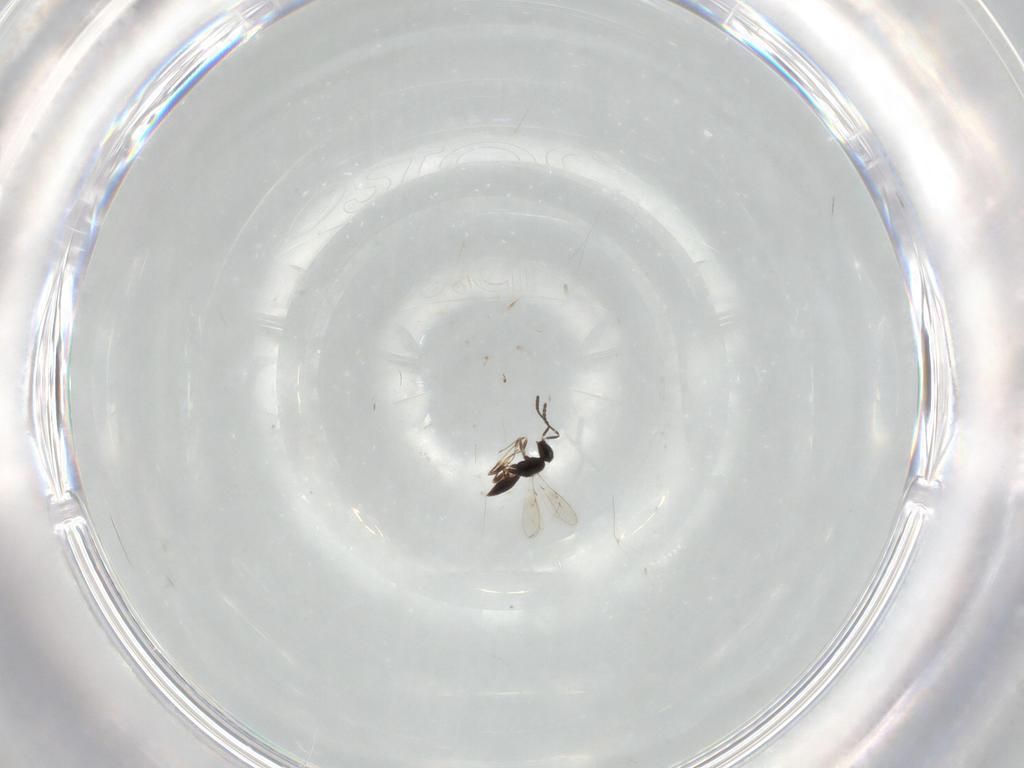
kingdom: Animalia
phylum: Arthropoda
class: Insecta
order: Hymenoptera
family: Scelionidae
